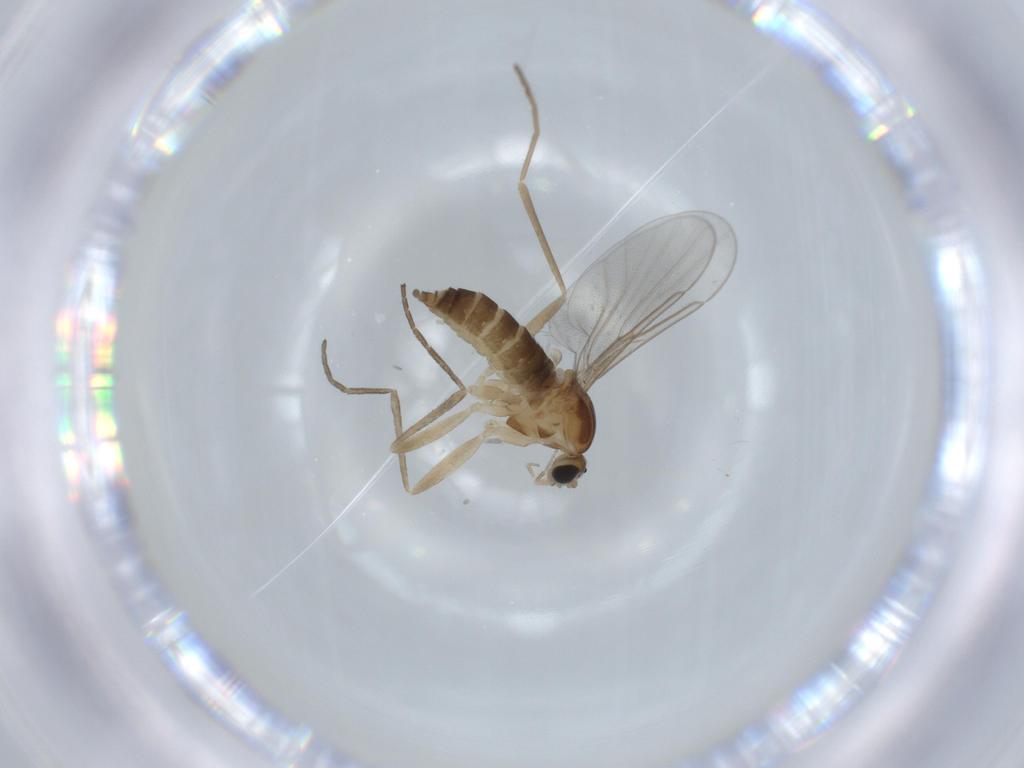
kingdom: Animalia
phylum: Arthropoda
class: Insecta
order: Diptera
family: Cecidomyiidae
